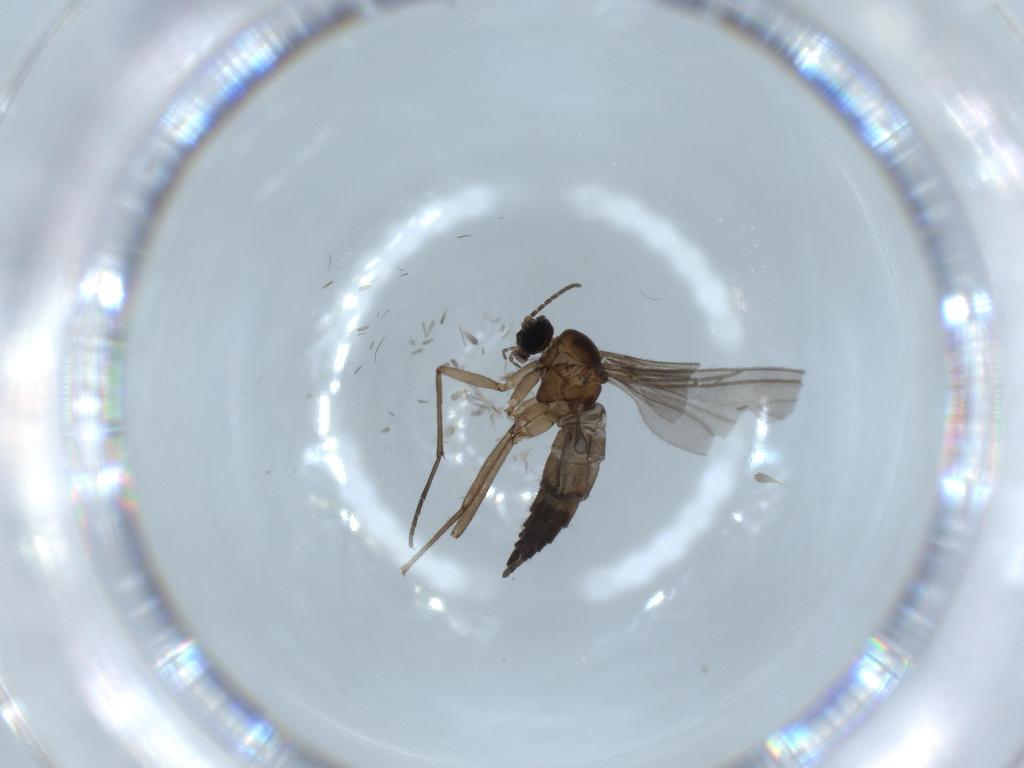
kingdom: Animalia
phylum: Arthropoda
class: Insecta
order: Diptera
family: Sciaridae
